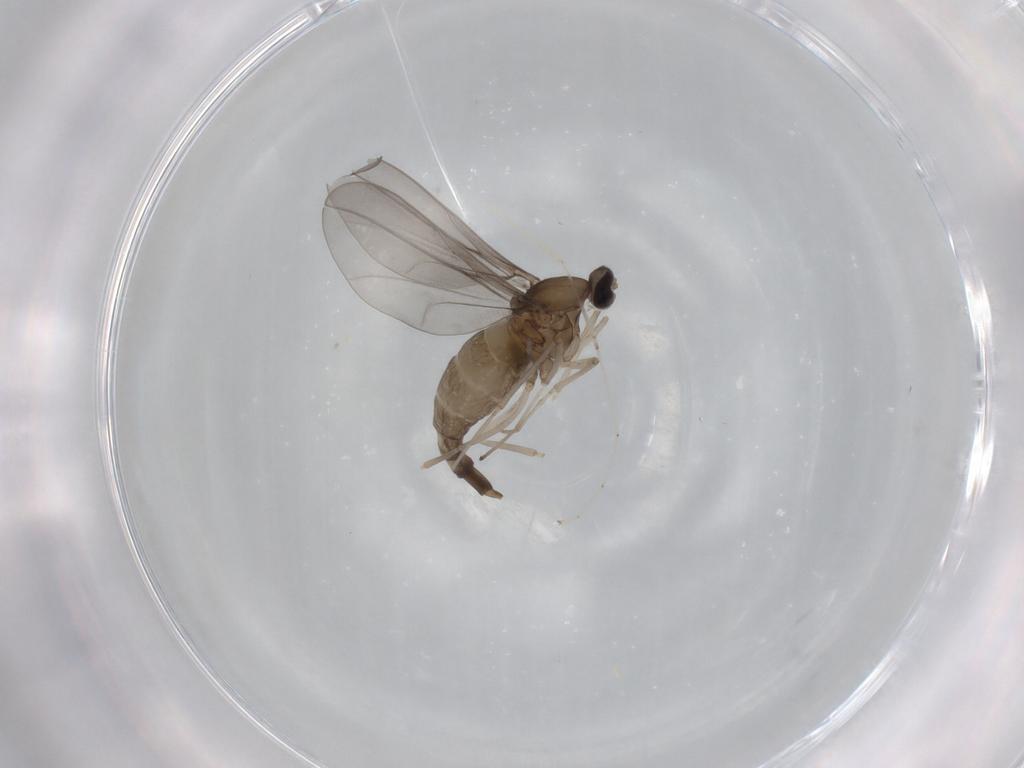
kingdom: Animalia
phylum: Arthropoda
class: Insecta
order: Diptera
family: Cecidomyiidae
